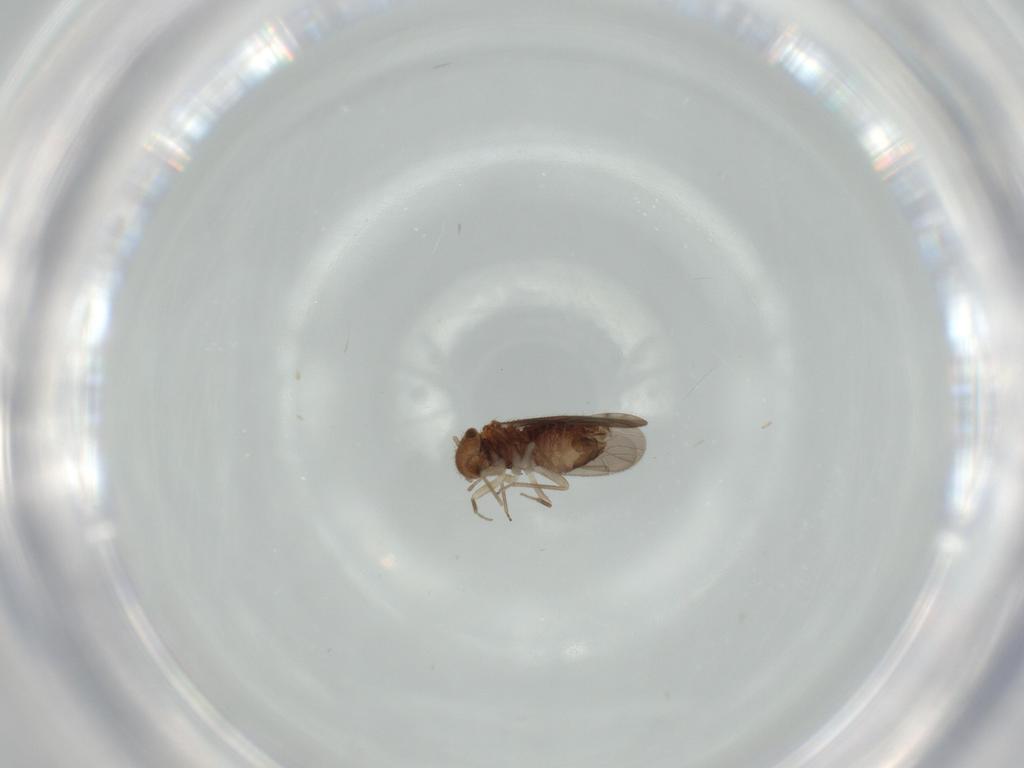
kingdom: Animalia
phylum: Arthropoda
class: Insecta
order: Psocodea
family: Ectopsocidae
